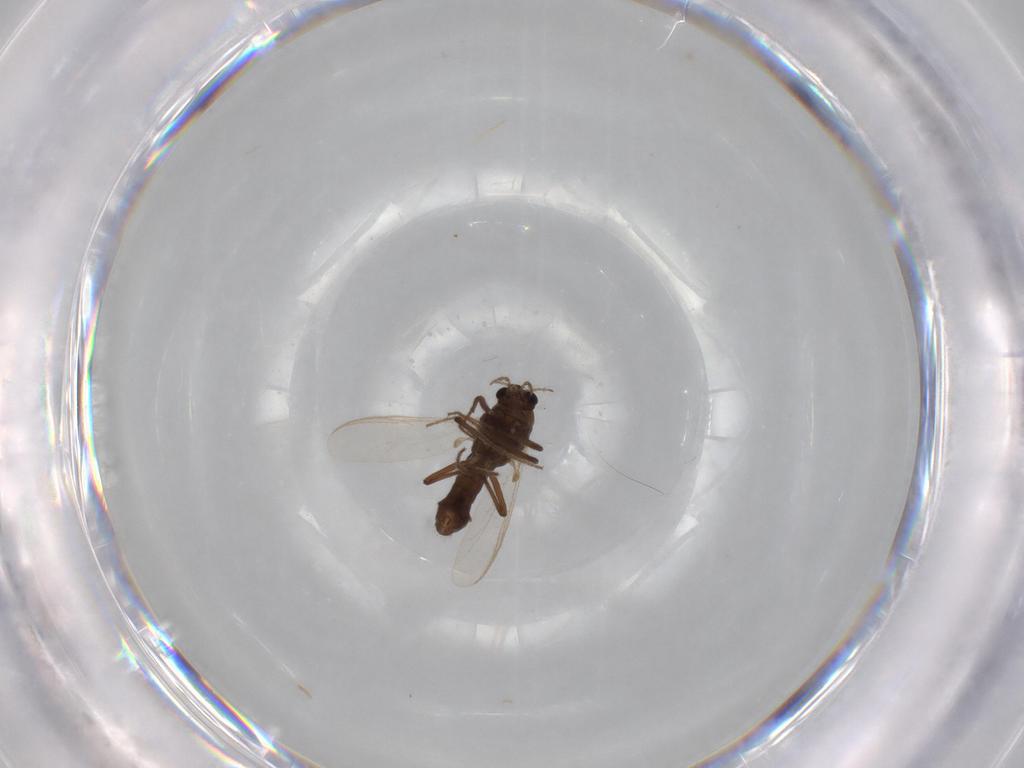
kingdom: Animalia
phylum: Arthropoda
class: Insecta
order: Diptera
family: Chironomidae
